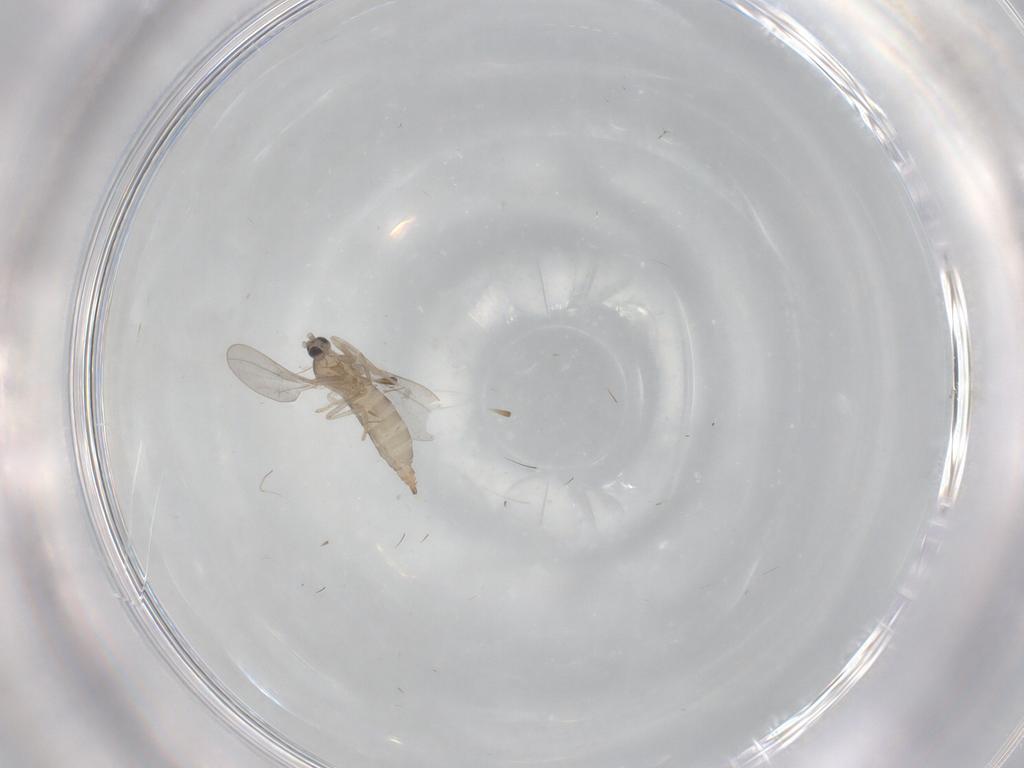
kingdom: Animalia
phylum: Arthropoda
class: Insecta
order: Diptera
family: Cecidomyiidae
